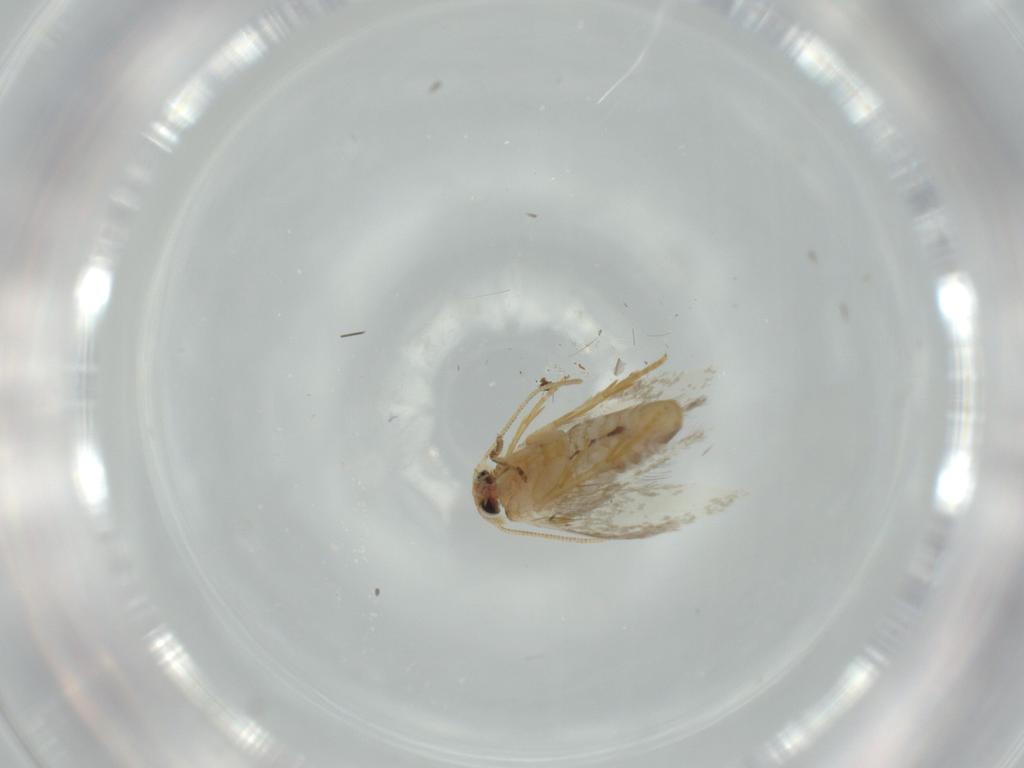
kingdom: Animalia
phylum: Arthropoda
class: Insecta
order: Lepidoptera
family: Nepticulidae
